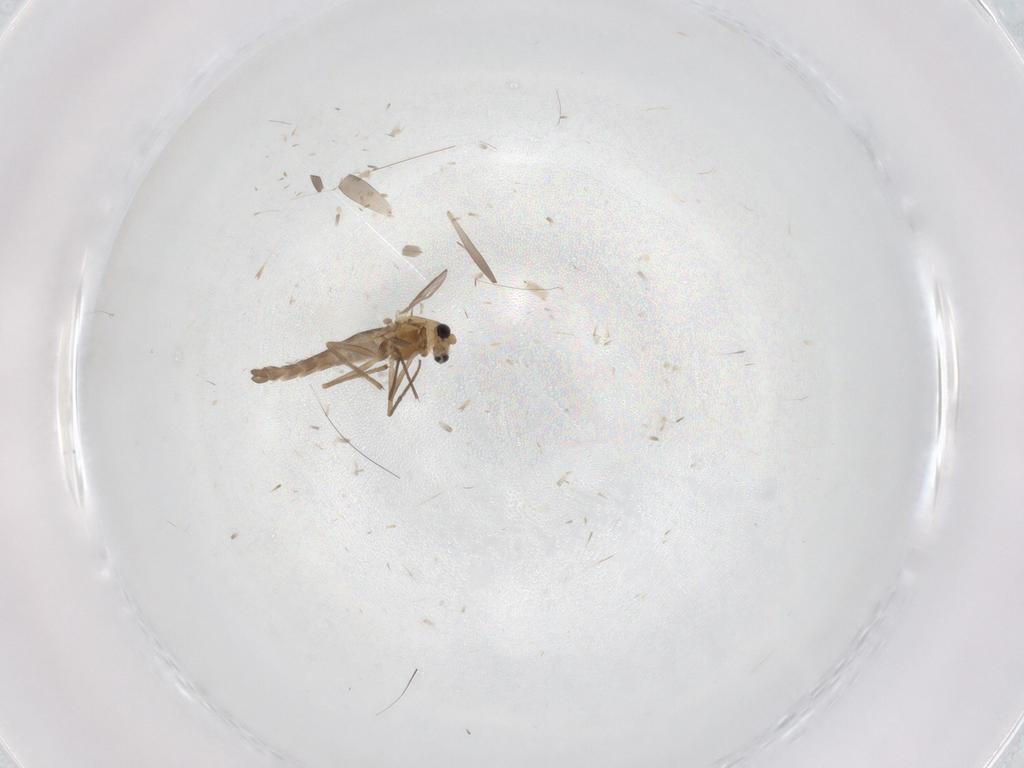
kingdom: Animalia
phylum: Arthropoda
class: Insecta
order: Diptera
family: Chironomidae
